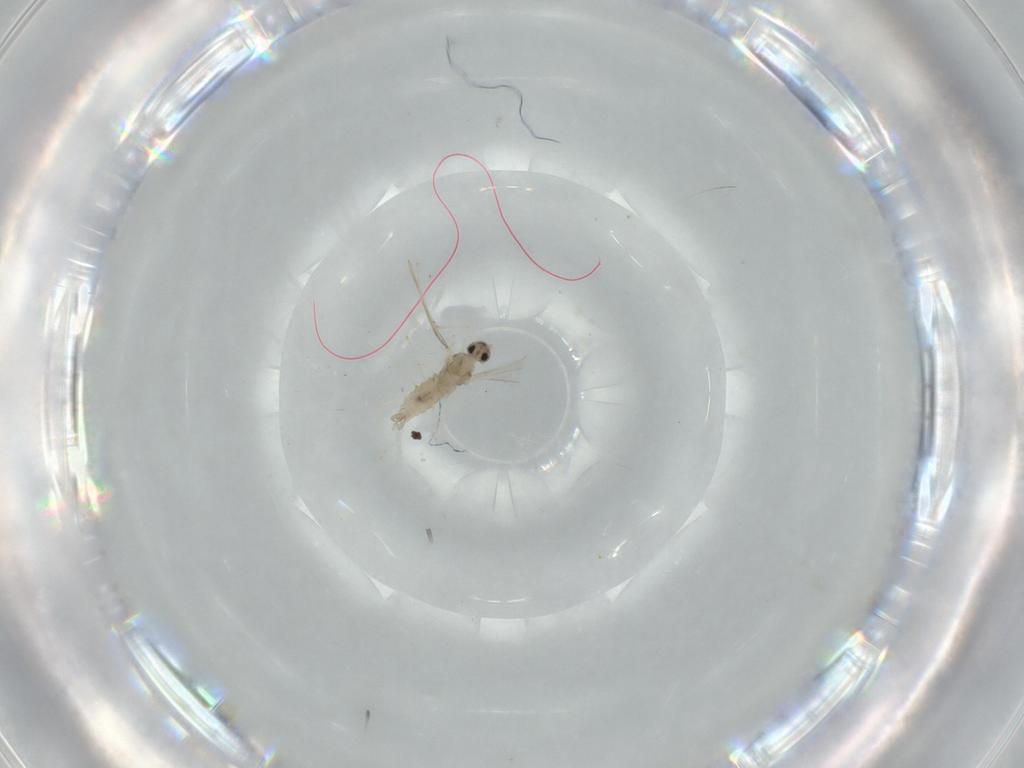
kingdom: Animalia
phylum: Arthropoda
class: Insecta
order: Diptera
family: Cecidomyiidae
